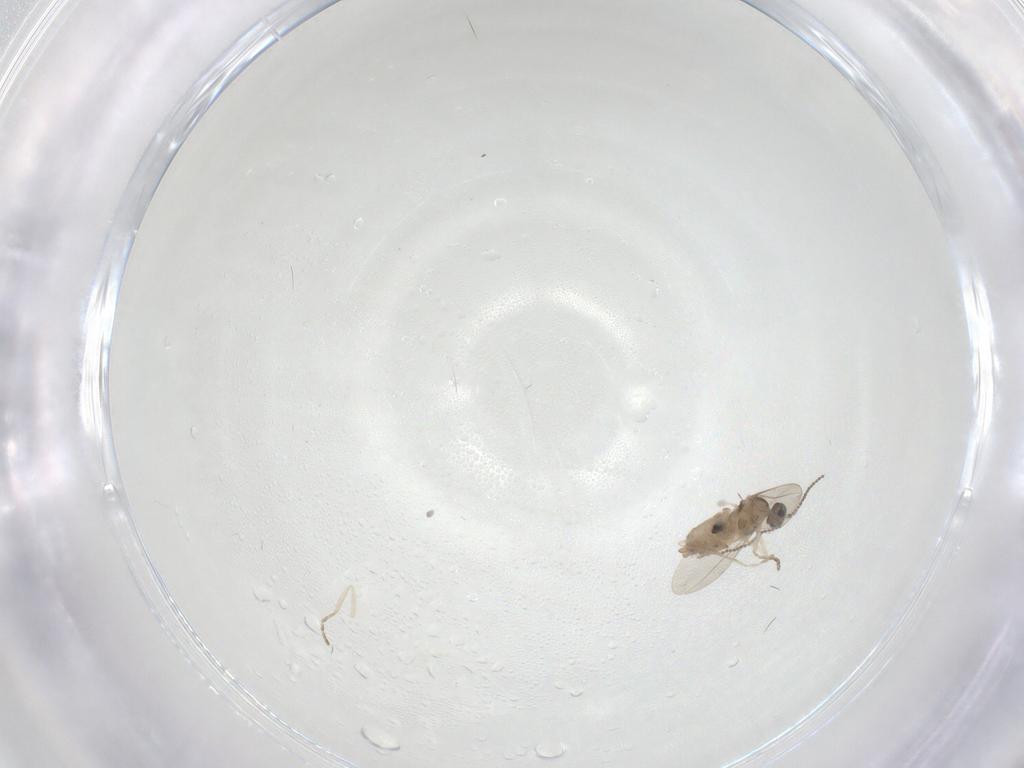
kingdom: Animalia
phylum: Arthropoda
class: Insecta
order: Diptera
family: Cecidomyiidae
